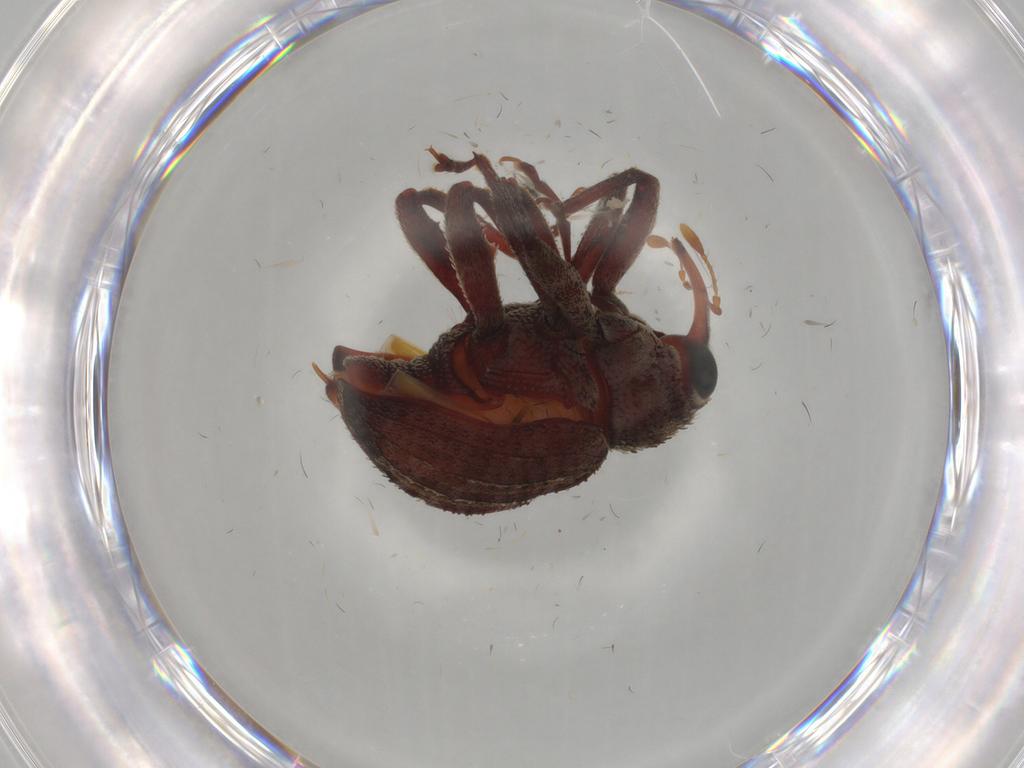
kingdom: Animalia
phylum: Arthropoda
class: Insecta
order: Coleoptera
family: Curculionidae
